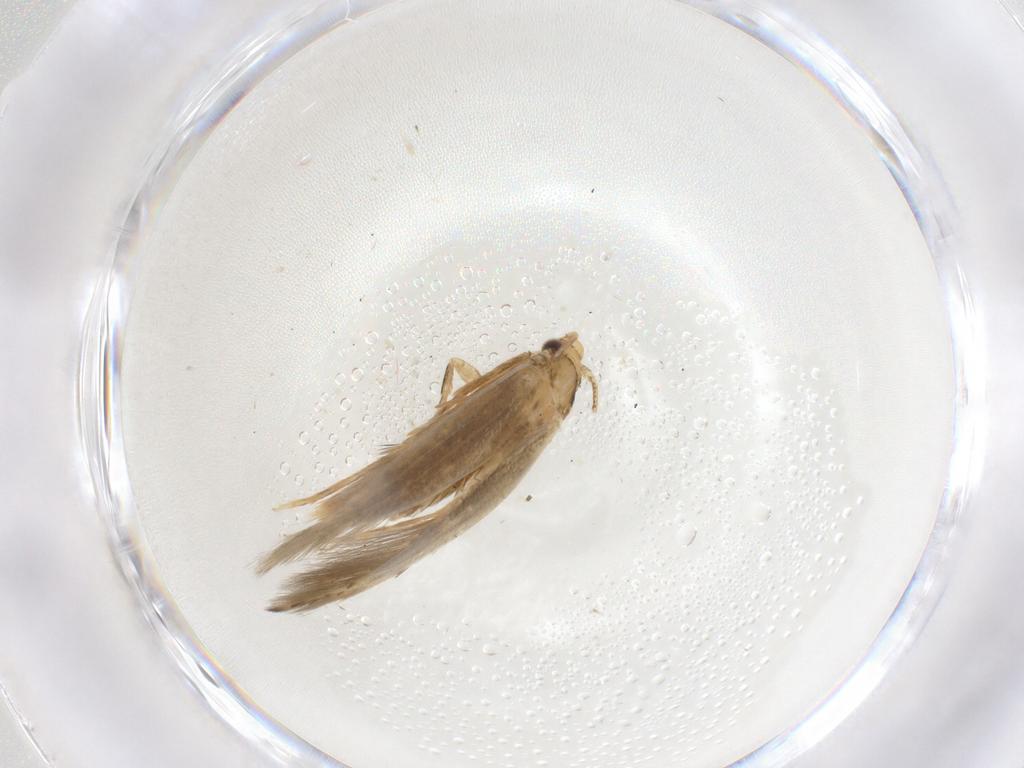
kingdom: Animalia
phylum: Arthropoda
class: Insecta
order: Lepidoptera
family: Tineidae
